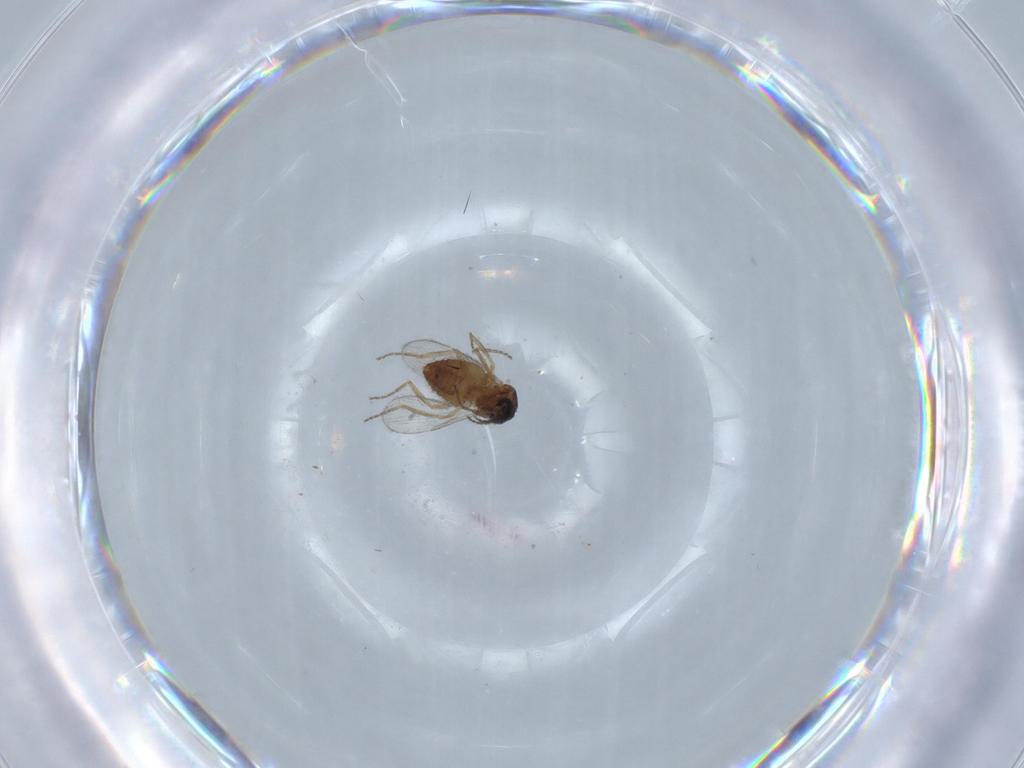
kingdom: Animalia
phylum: Arthropoda
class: Insecta
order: Diptera
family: Ceratopogonidae
